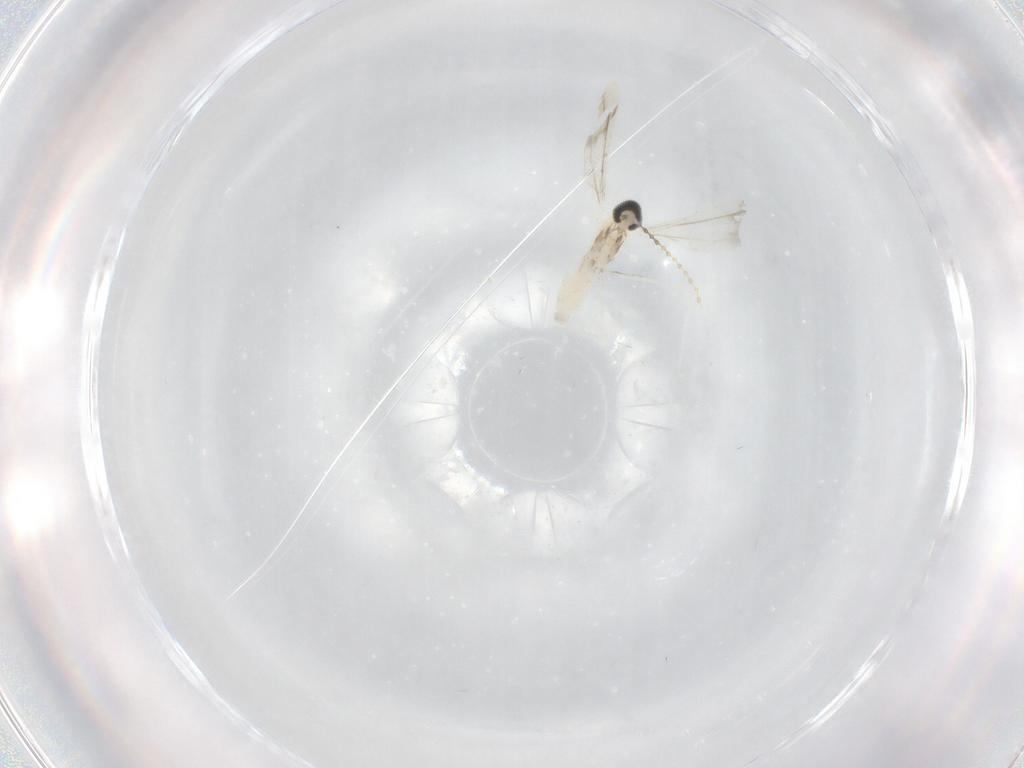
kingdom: Animalia
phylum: Arthropoda
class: Insecta
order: Diptera
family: Cecidomyiidae
